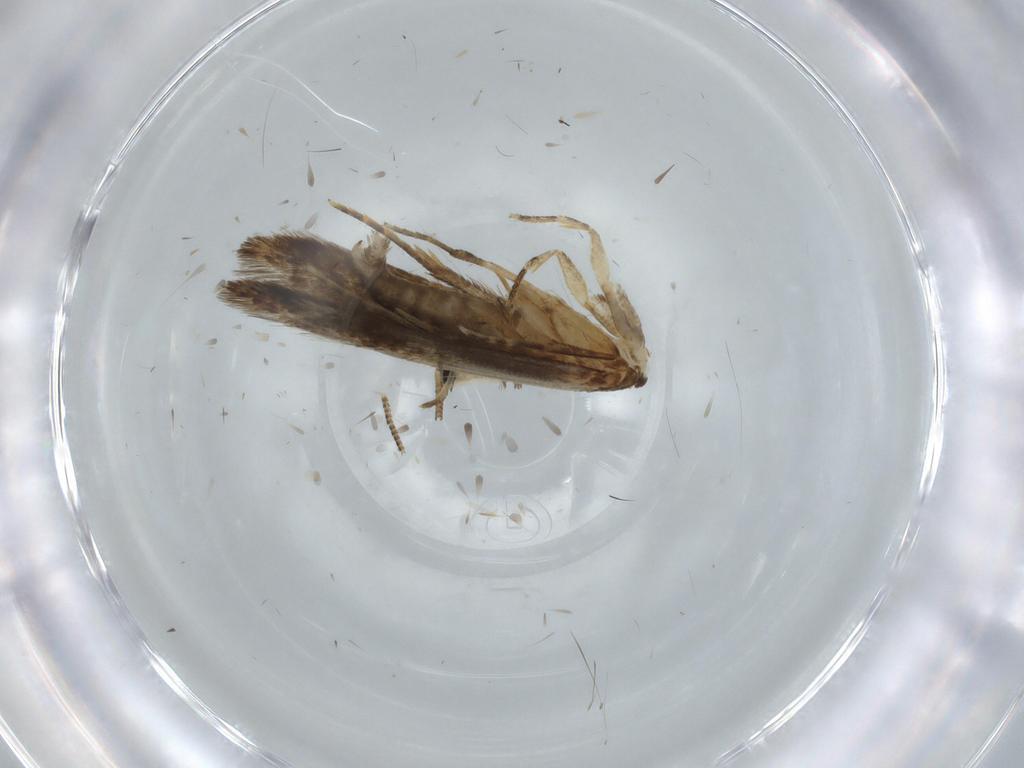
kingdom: Animalia
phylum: Arthropoda
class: Insecta
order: Lepidoptera
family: Tineidae
